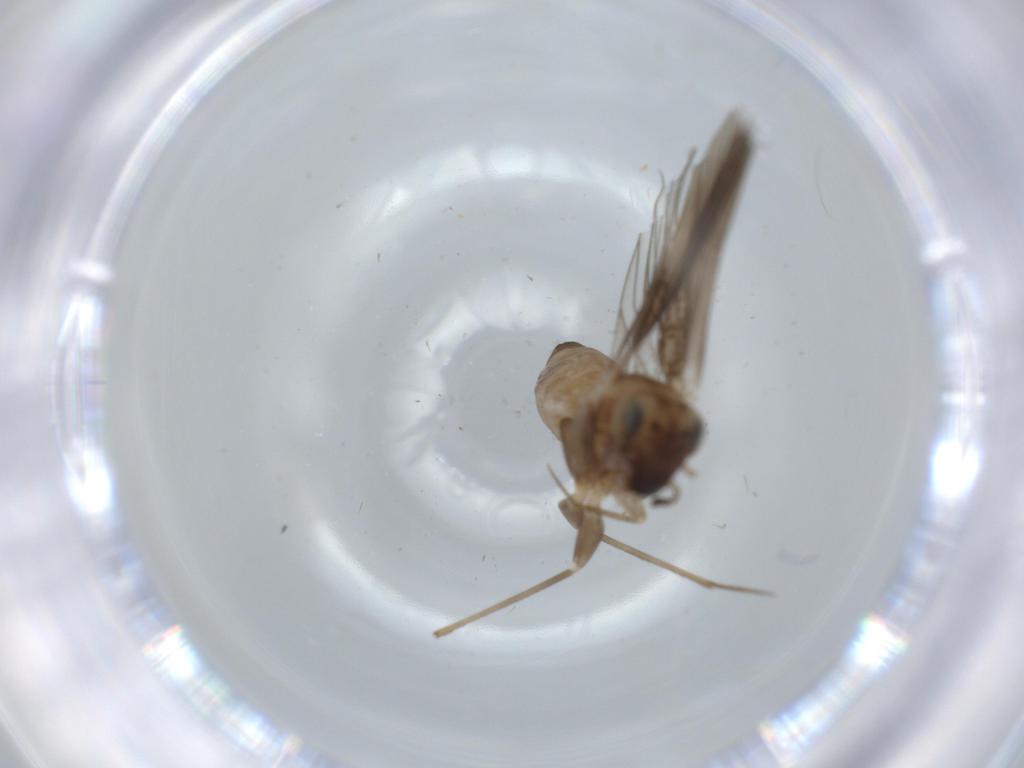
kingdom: Animalia
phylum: Arthropoda
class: Insecta
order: Psocodea
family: Lepidopsocidae
